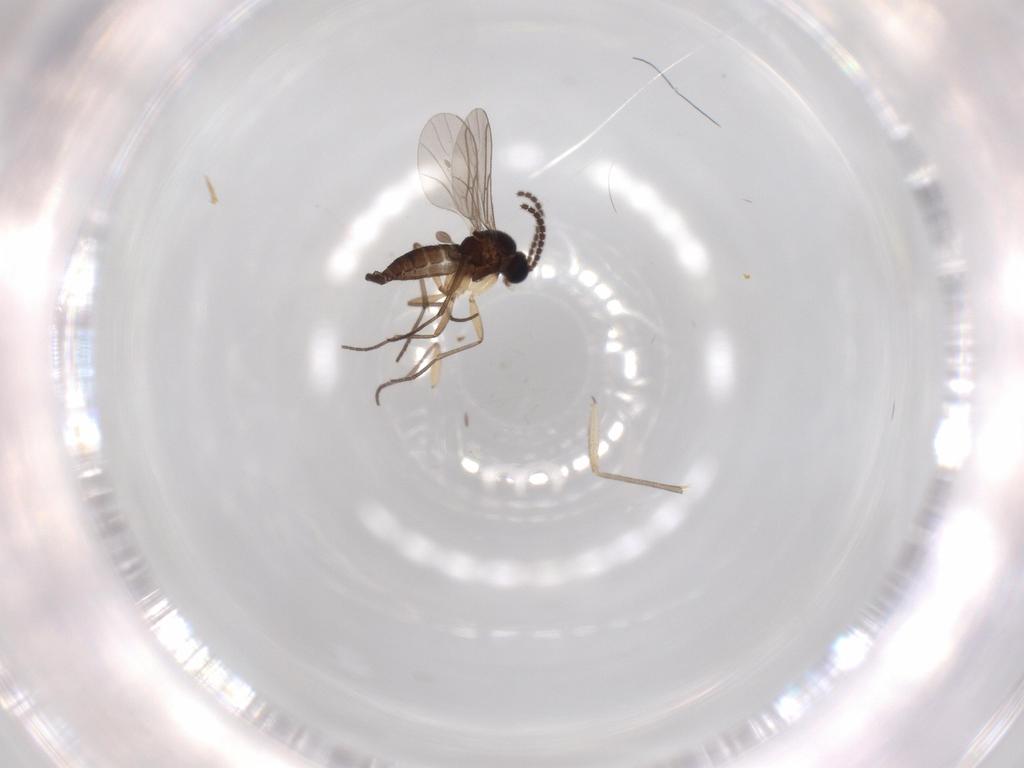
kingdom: Animalia
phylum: Arthropoda
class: Insecta
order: Diptera
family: Sciaridae
